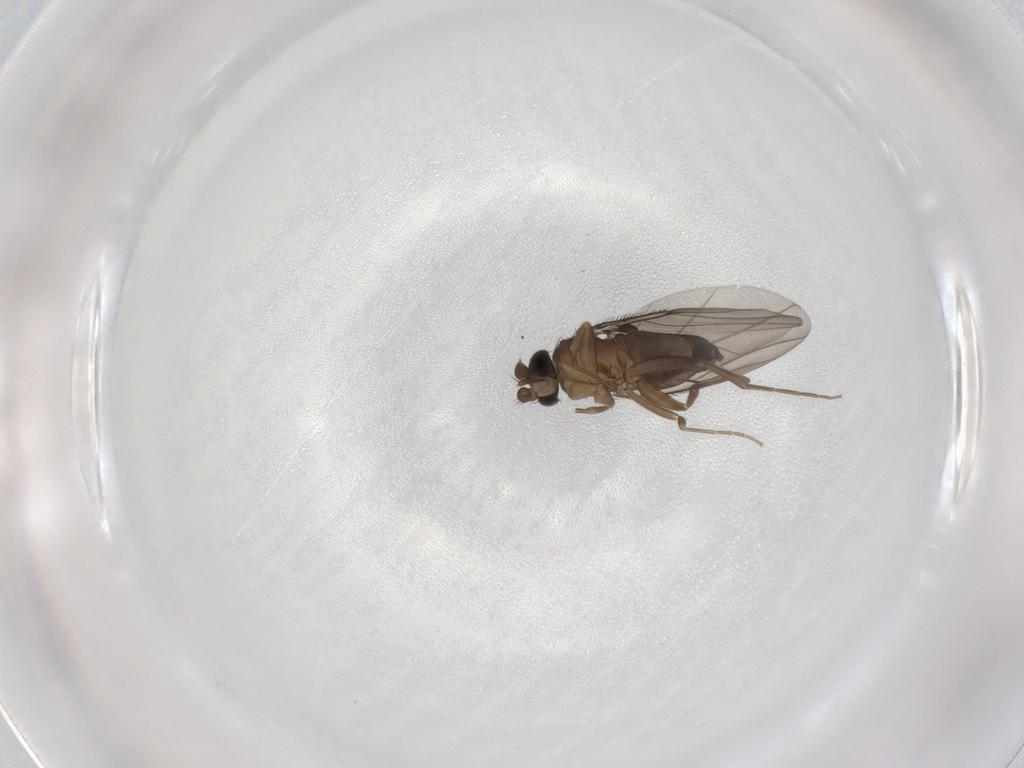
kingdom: Animalia
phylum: Arthropoda
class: Insecta
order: Diptera
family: Phoridae
